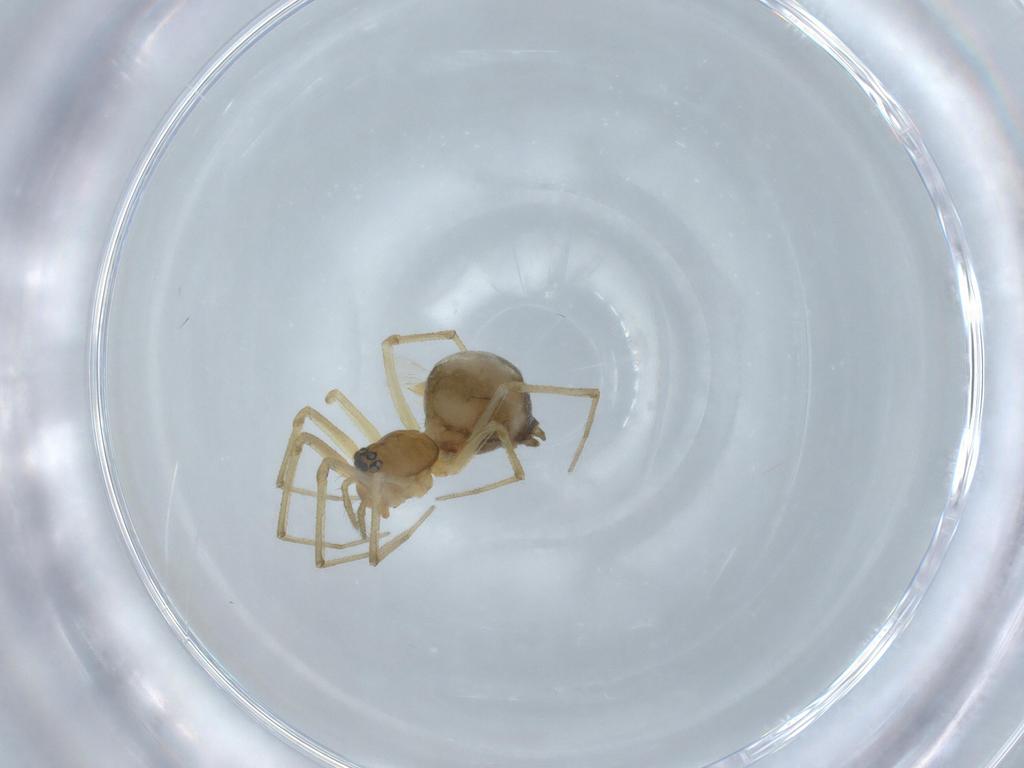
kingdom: Animalia
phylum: Arthropoda
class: Arachnida
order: Araneae
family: Linyphiidae
